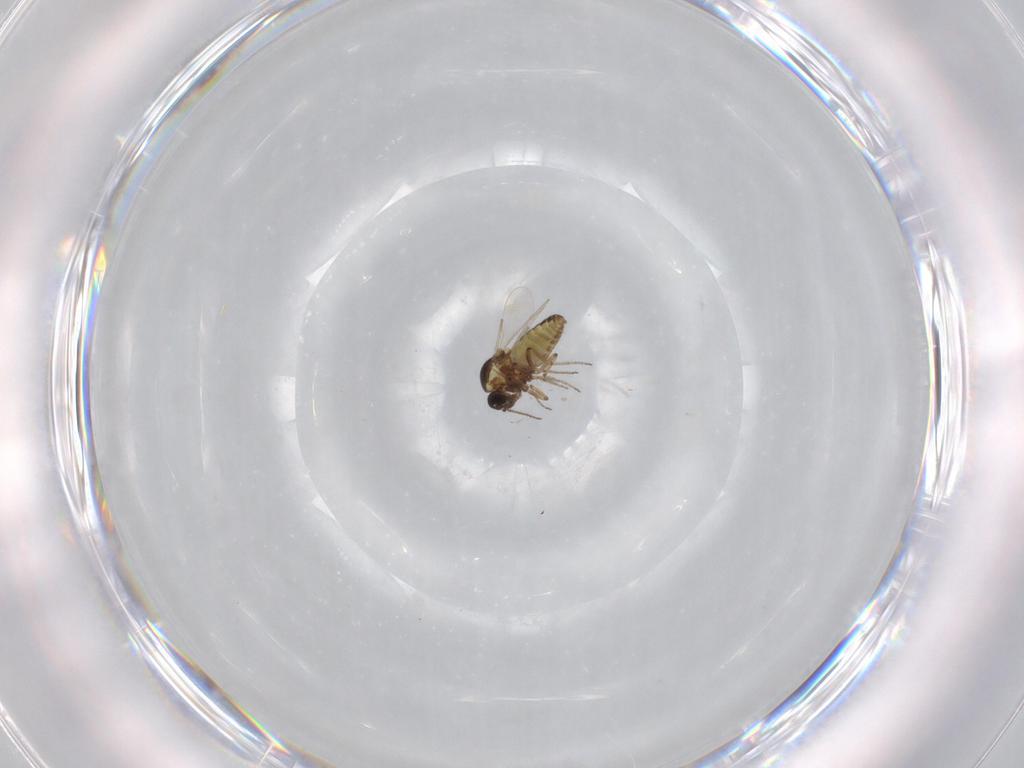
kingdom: Animalia
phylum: Arthropoda
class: Insecta
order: Diptera
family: Ceratopogonidae
